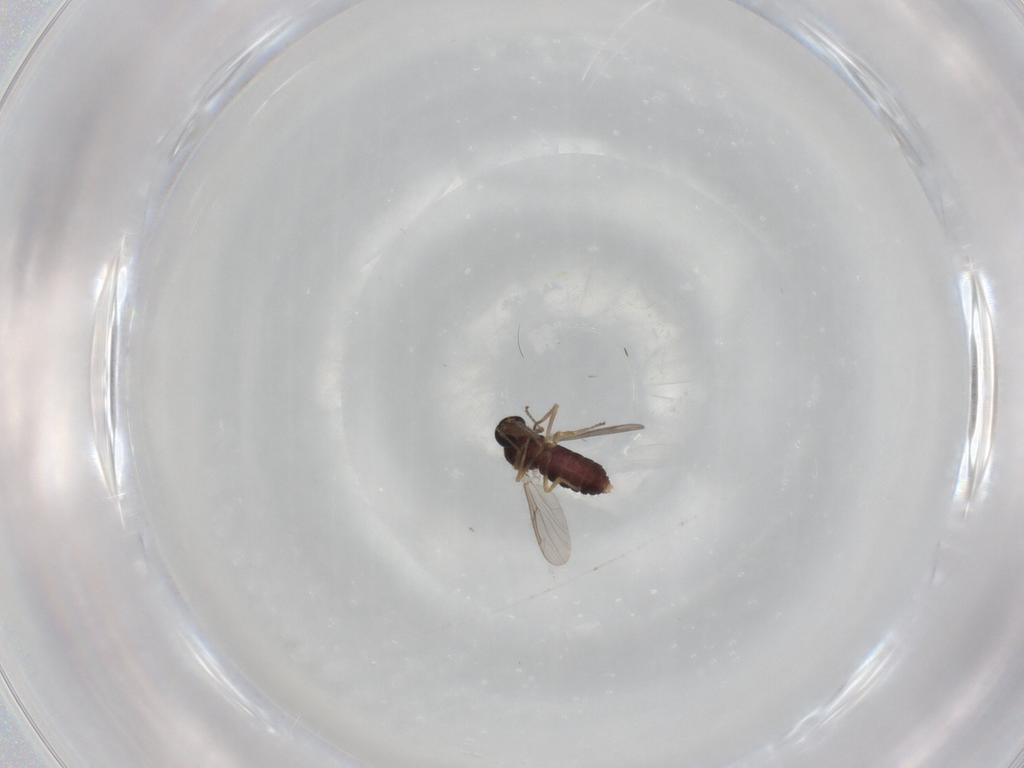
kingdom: Animalia
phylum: Arthropoda
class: Insecta
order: Diptera
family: Ceratopogonidae
